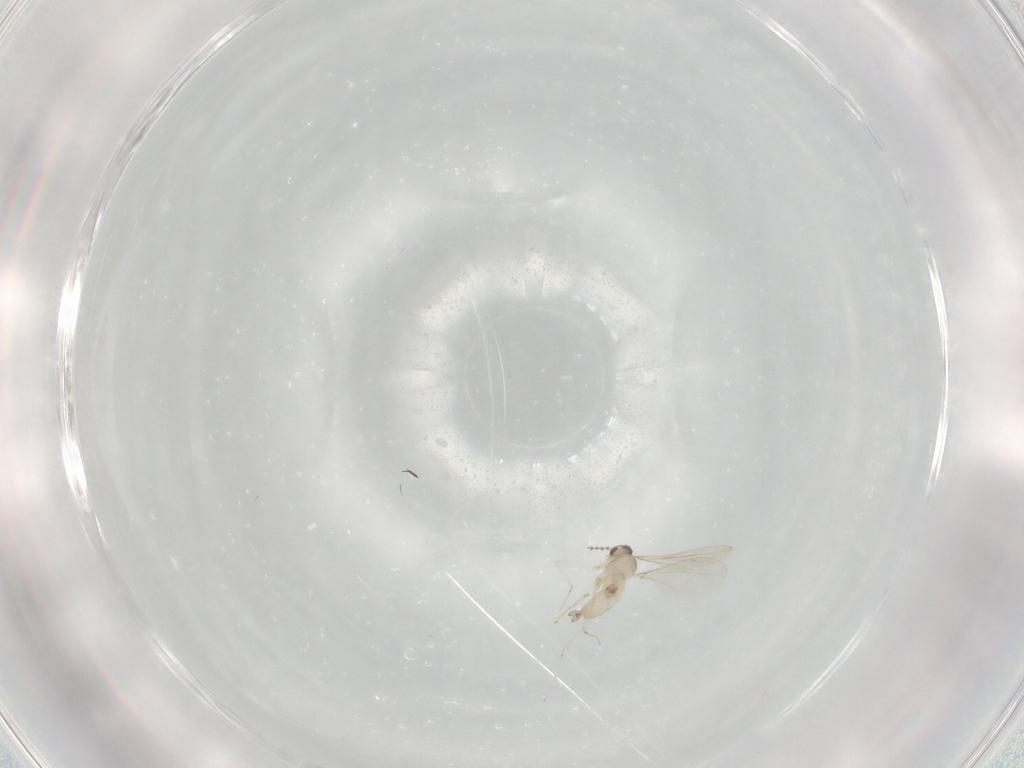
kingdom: Animalia
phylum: Arthropoda
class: Insecta
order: Diptera
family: Cecidomyiidae
